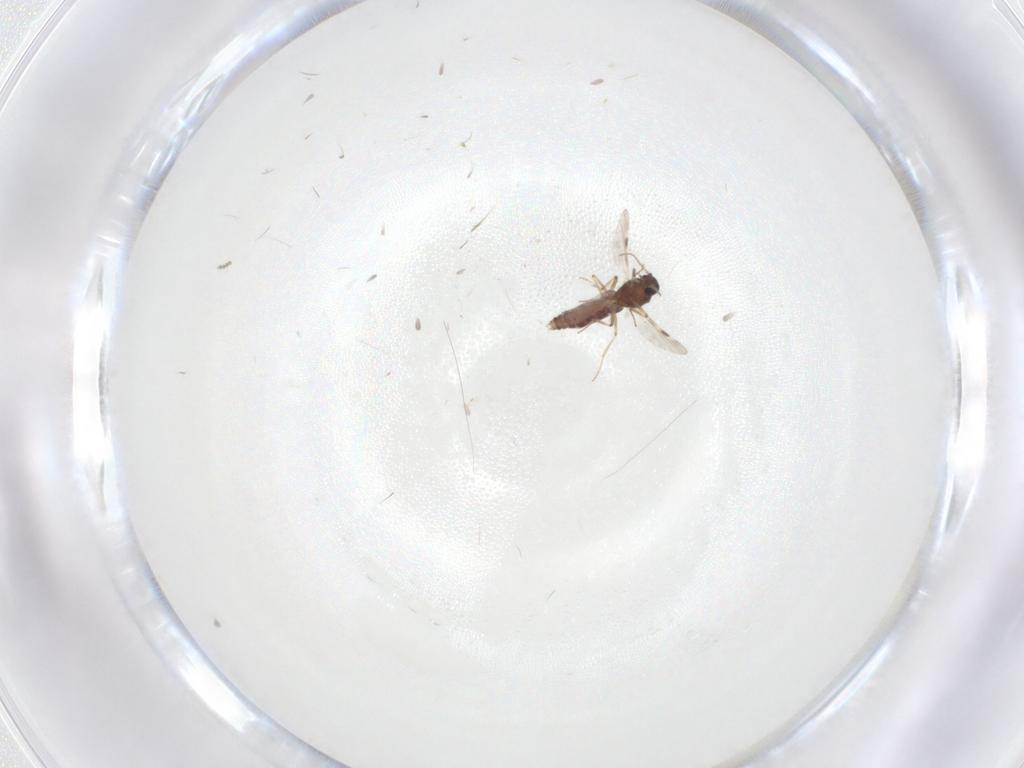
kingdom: Animalia
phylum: Arthropoda
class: Insecta
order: Diptera
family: Cecidomyiidae
